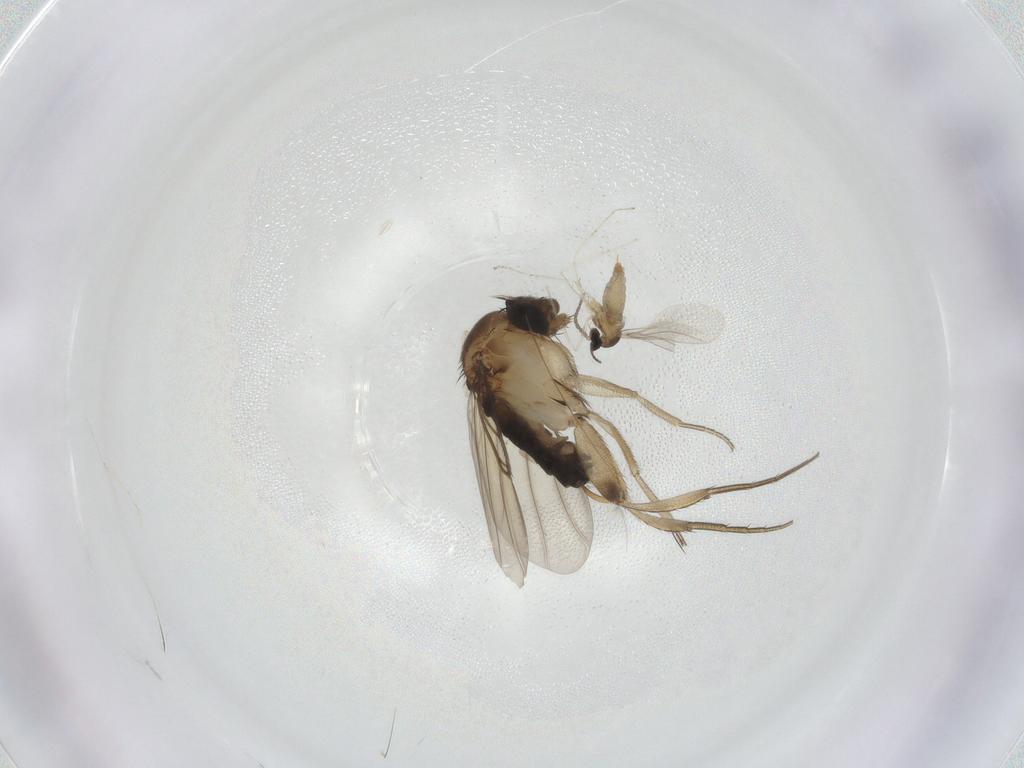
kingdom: Animalia
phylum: Arthropoda
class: Insecta
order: Diptera
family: Phoridae
